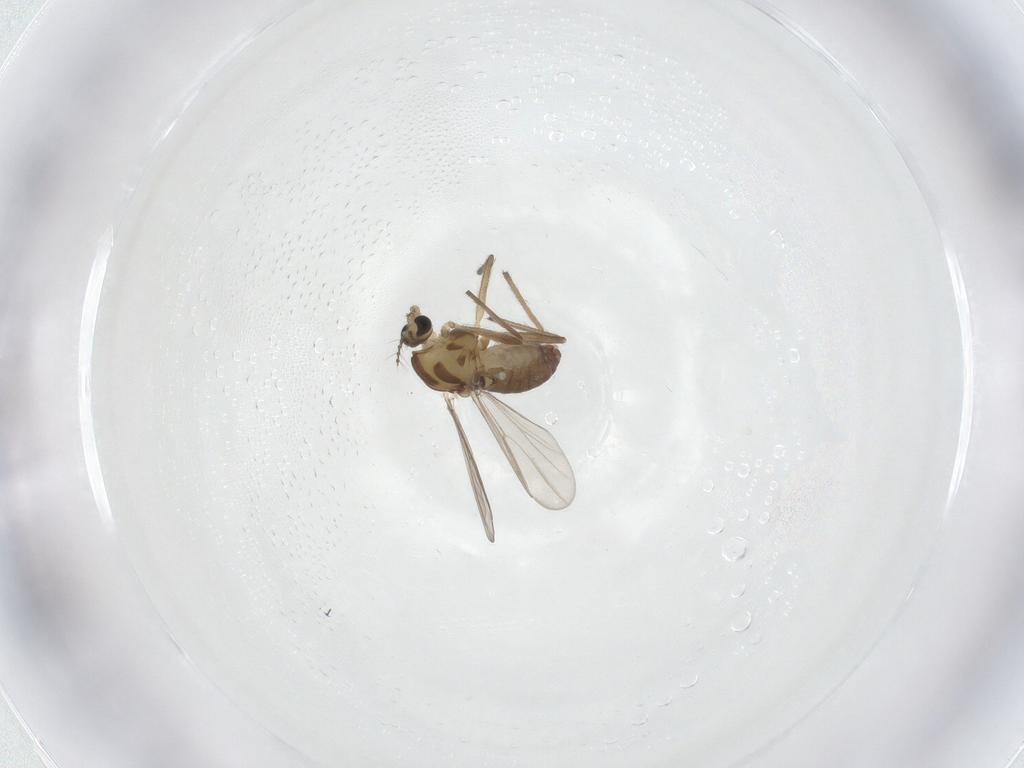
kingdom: Animalia
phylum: Arthropoda
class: Insecta
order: Diptera
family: Chironomidae
